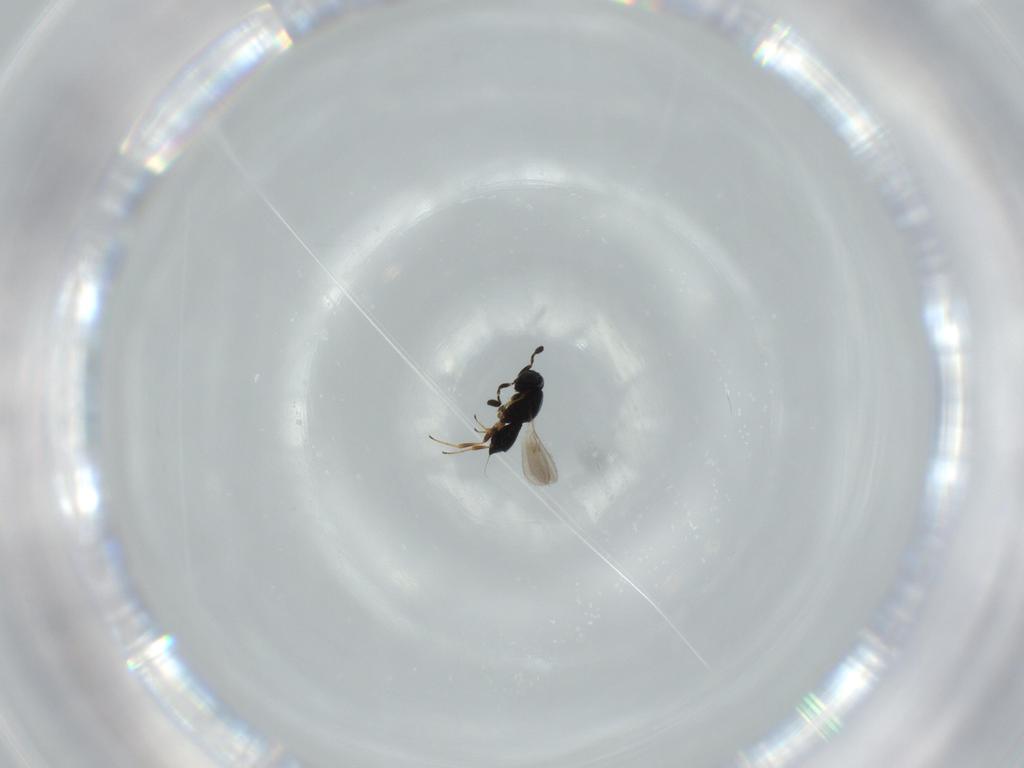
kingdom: Animalia
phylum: Arthropoda
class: Insecta
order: Hymenoptera
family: Scelionidae
